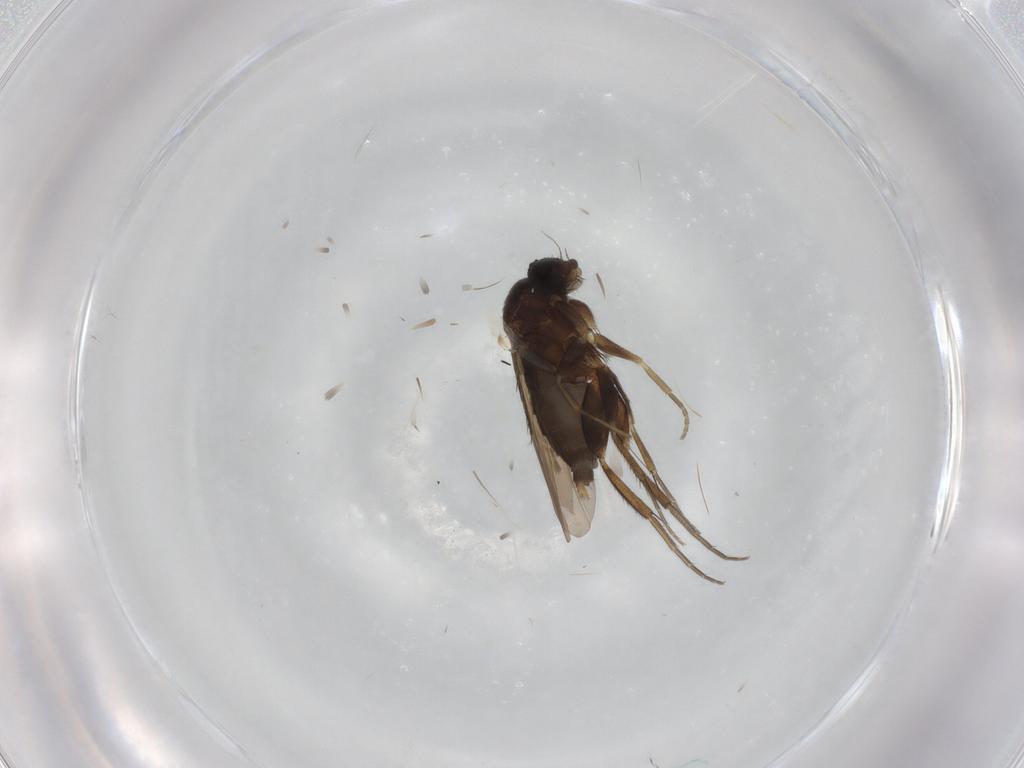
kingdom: Animalia
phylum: Arthropoda
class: Insecta
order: Diptera
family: Phoridae
